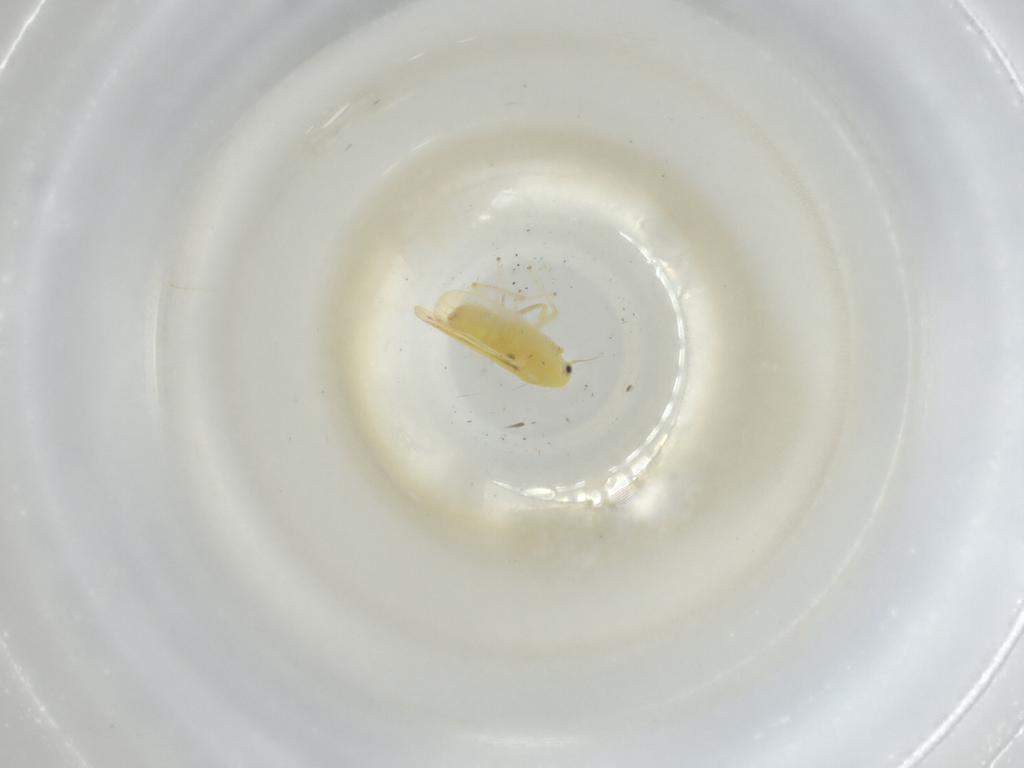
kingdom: Animalia
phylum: Arthropoda
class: Insecta
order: Hemiptera
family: Cicadellidae
